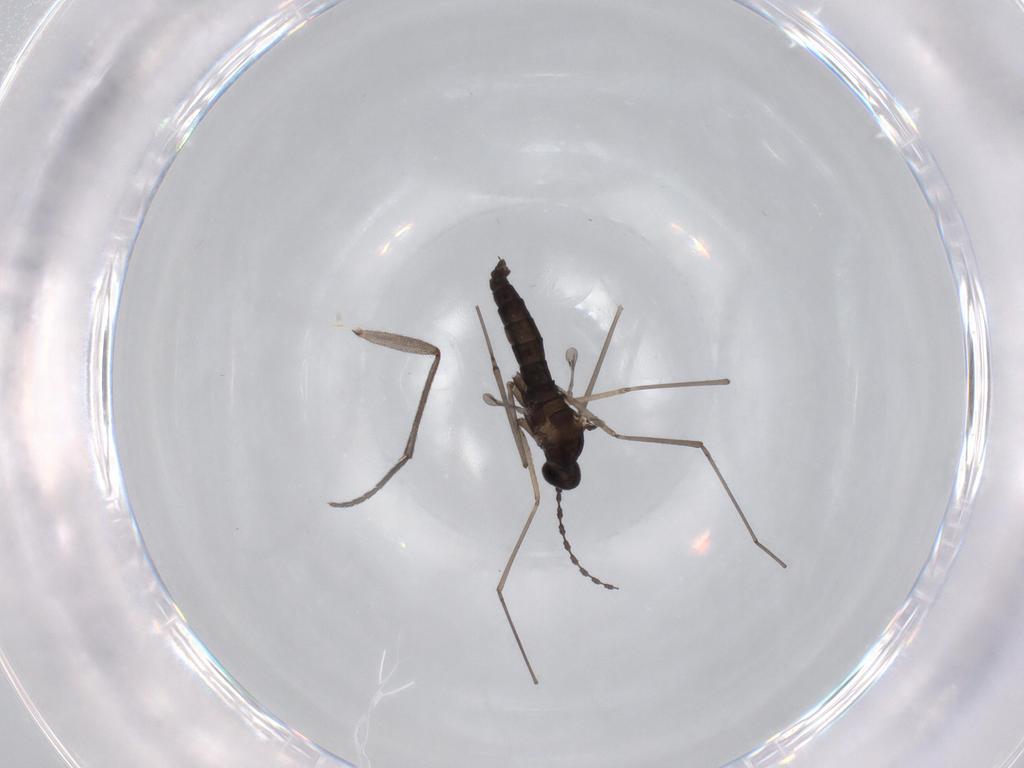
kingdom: Animalia
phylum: Arthropoda
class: Insecta
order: Diptera
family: Cecidomyiidae
